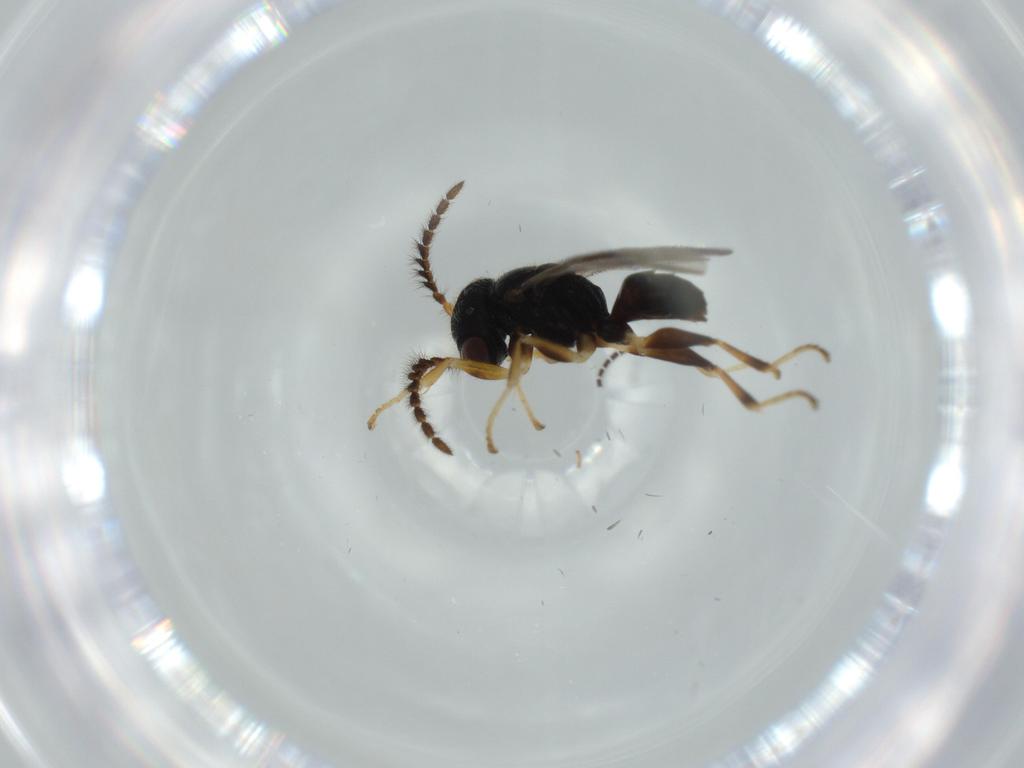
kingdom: Animalia
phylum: Arthropoda
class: Insecta
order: Hymenoptera
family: Dryinidae
